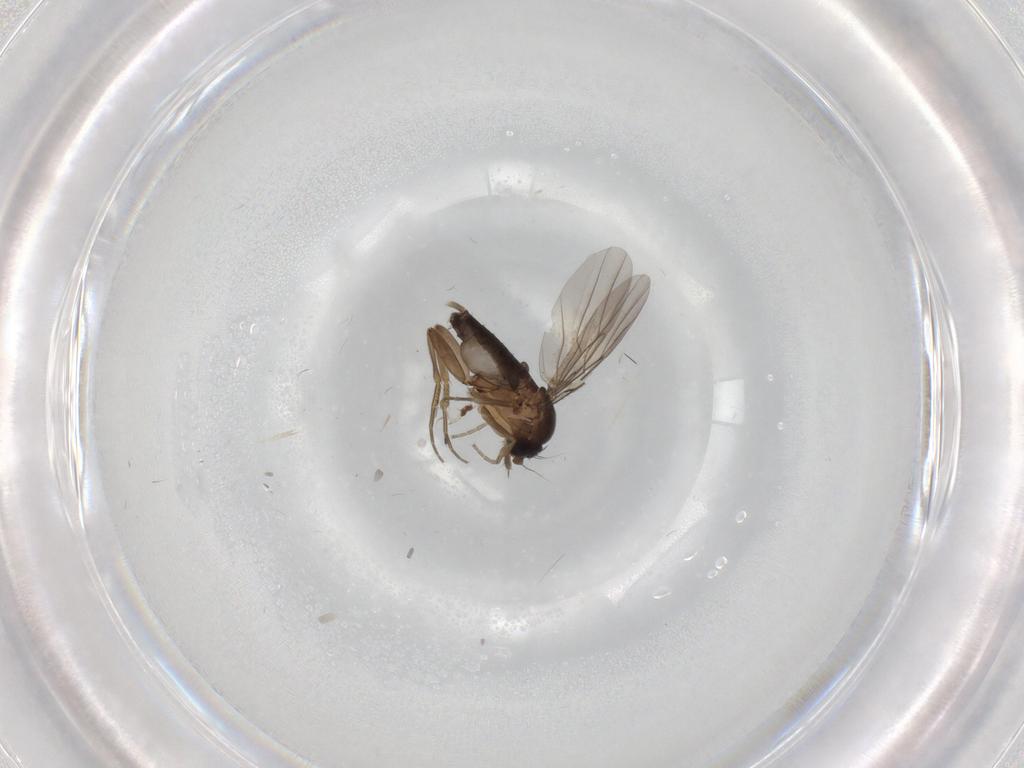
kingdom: Animalia
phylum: Arthropoda
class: Insecta
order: Diptera
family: Phoridae
